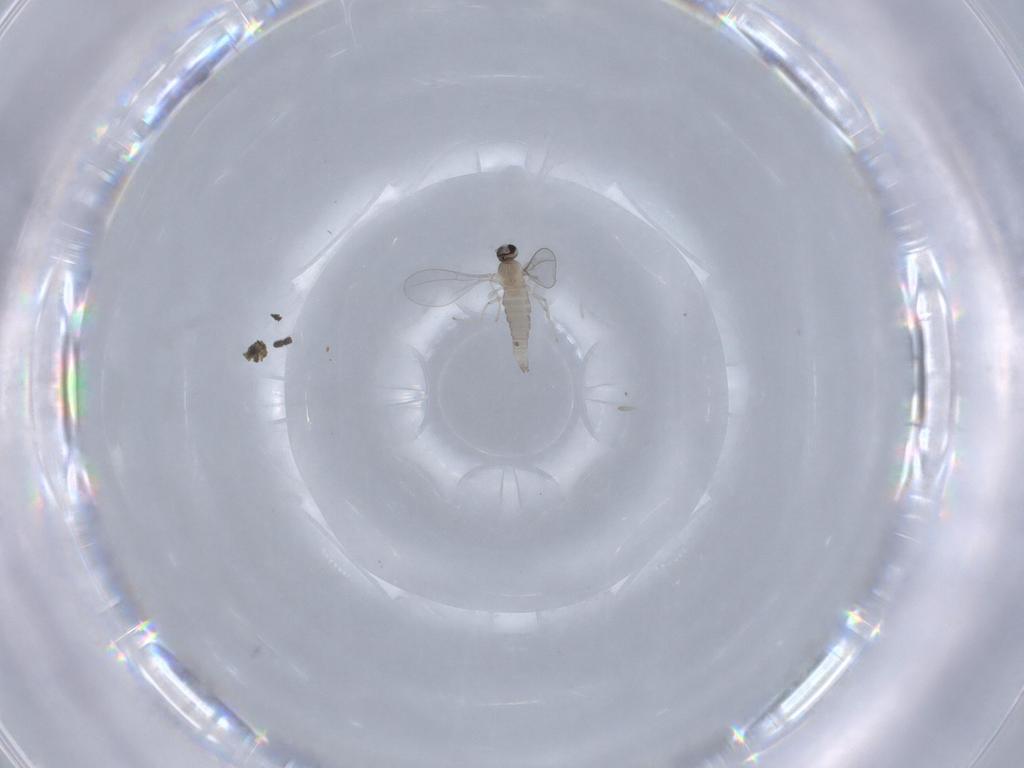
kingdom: Animalia
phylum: Arthropoda
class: Insecta
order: Diptera
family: Cecidomyiidae
